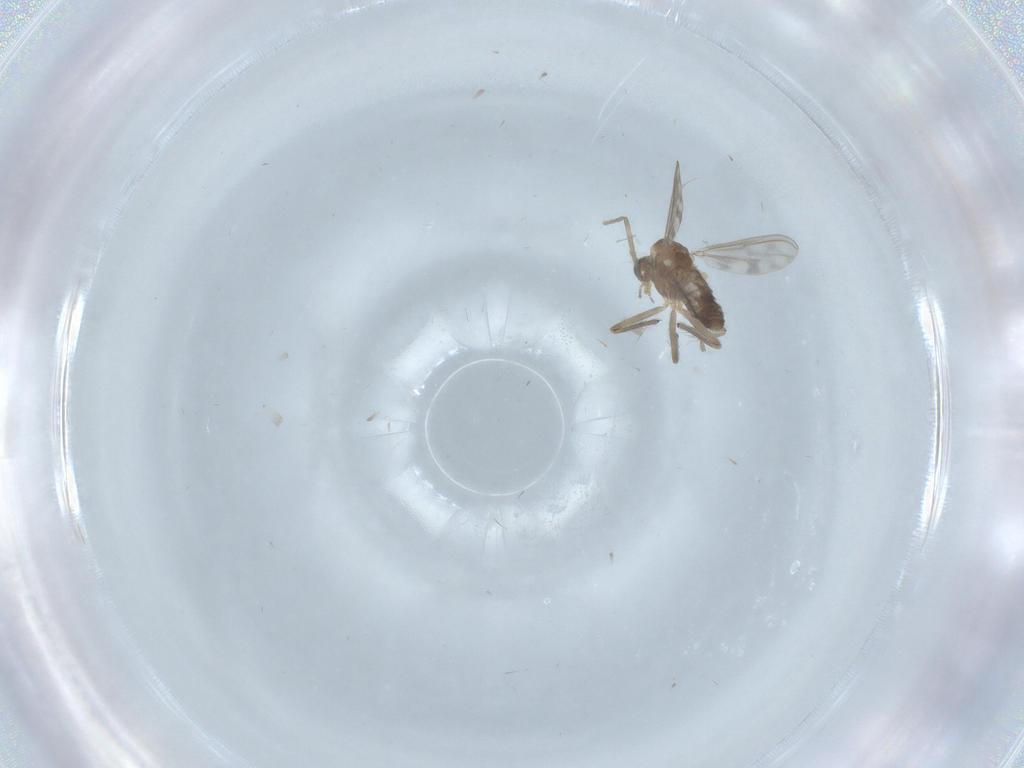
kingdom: Animalia
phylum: Arthropoda
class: Insecta
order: Diptera
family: Chironomidae
